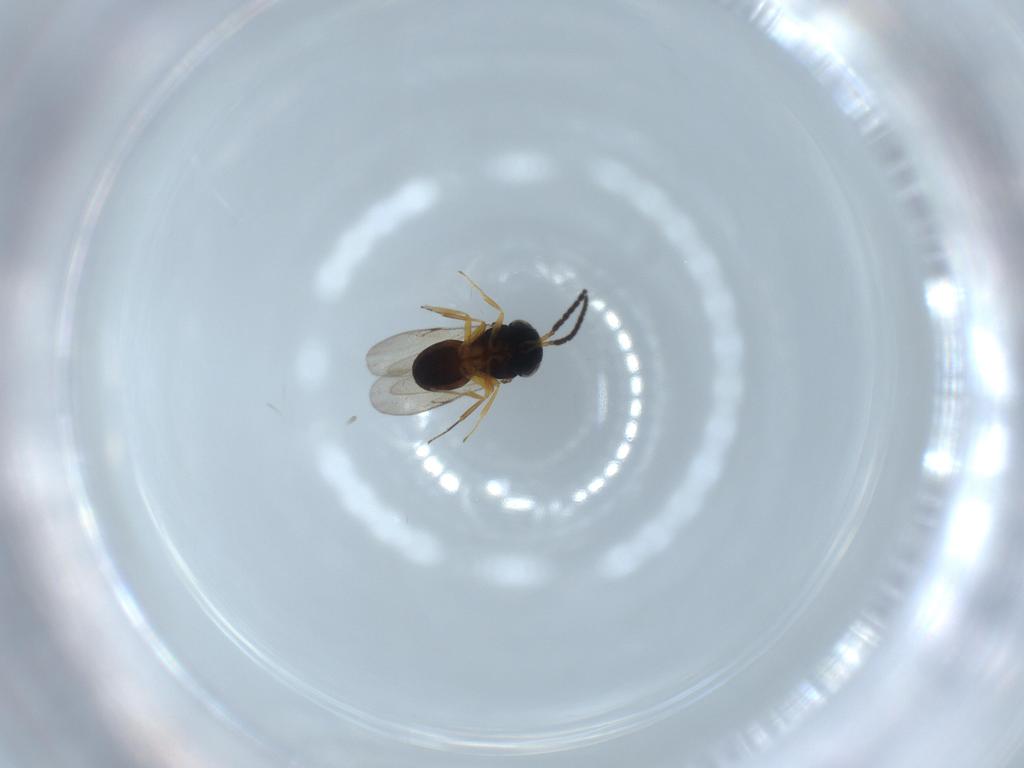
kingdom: Animalia
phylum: Arthropoda
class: Insecta
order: Coleoptera
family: Curculionidae
